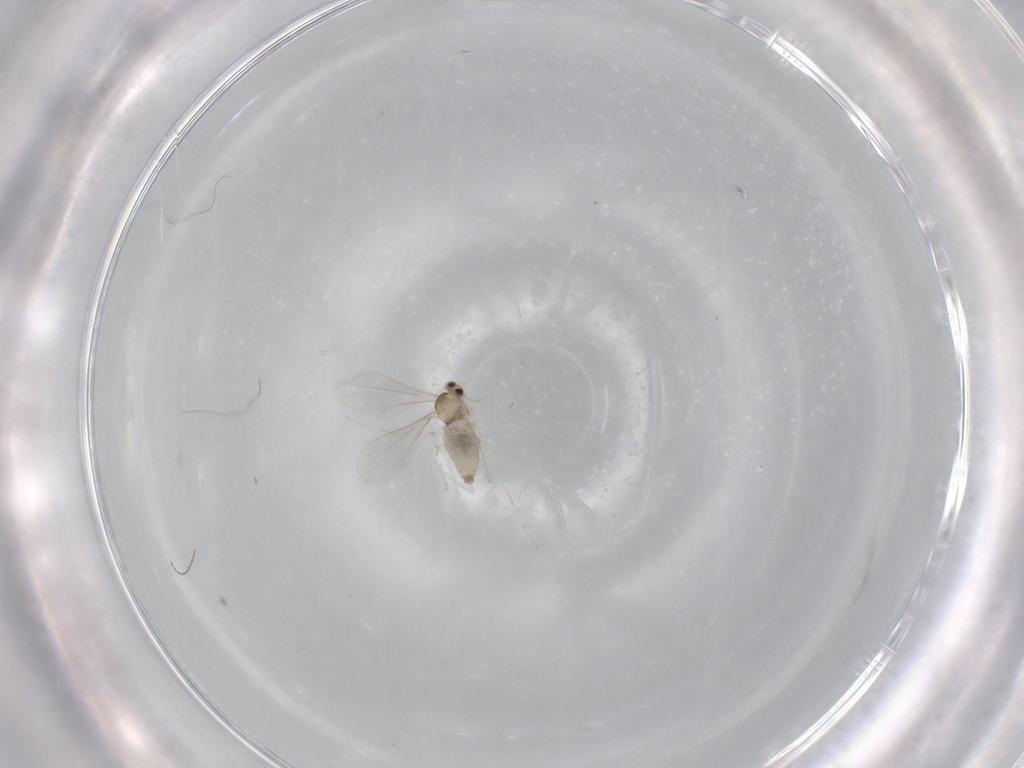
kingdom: Animalia
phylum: Arthropoda
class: Insecta
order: Diptera
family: Cecidomyiidae
